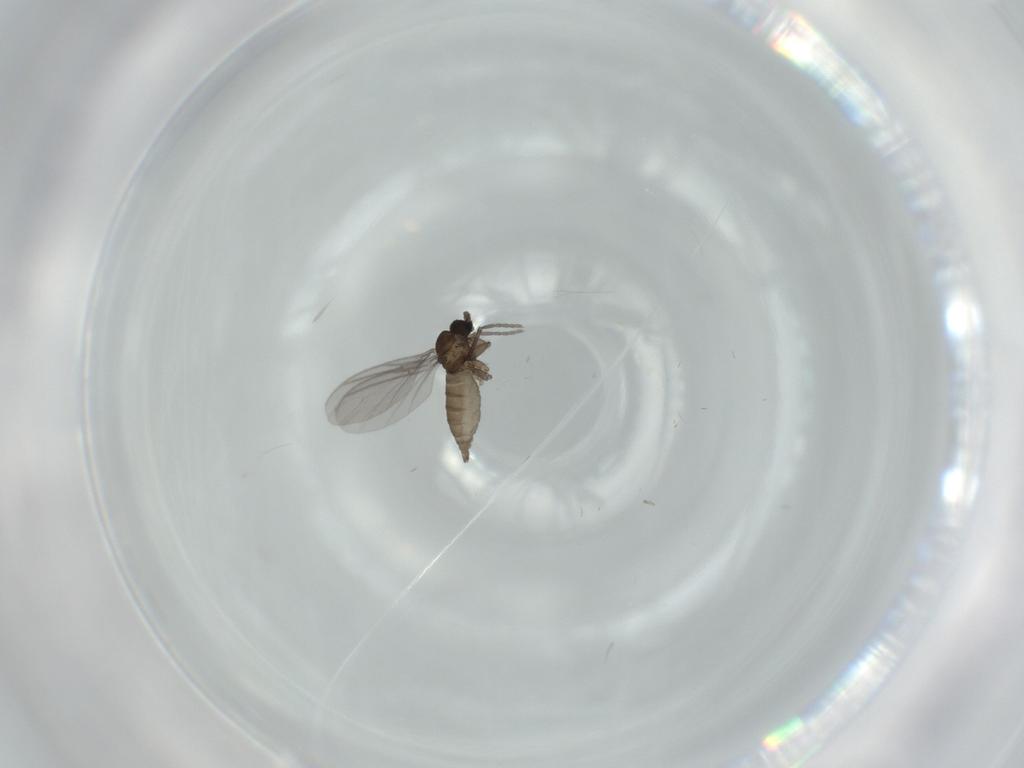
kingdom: Animalia
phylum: Arthropoda
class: Insecta
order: Diptera
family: Sciaridae
